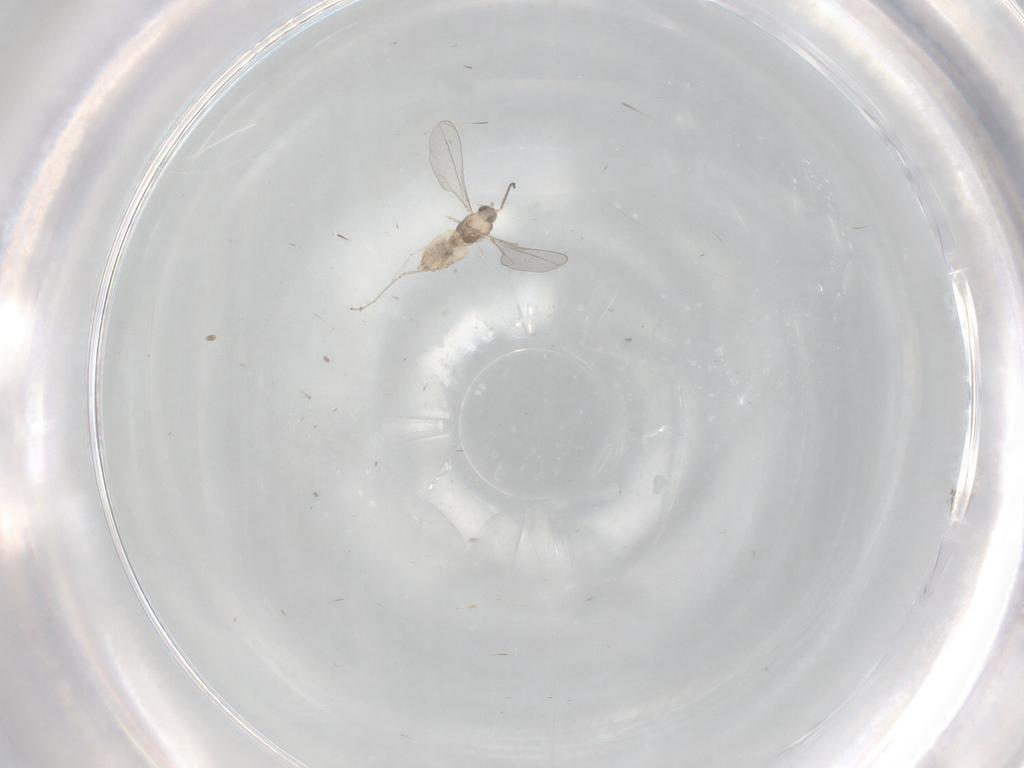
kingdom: Animalia
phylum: Arthropoda
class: Insecta
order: Diptera
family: Cecidomyiidae
